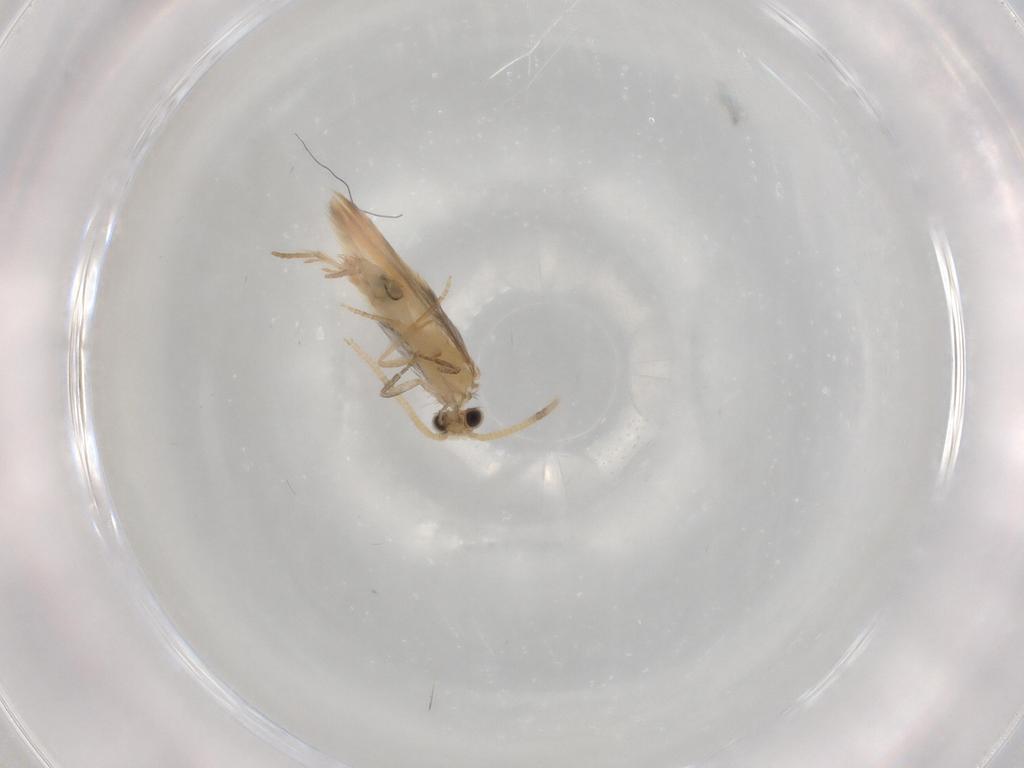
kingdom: Animalia
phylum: Arthropoda
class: Insecta
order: Trichoptera
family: Hydroptilidae
